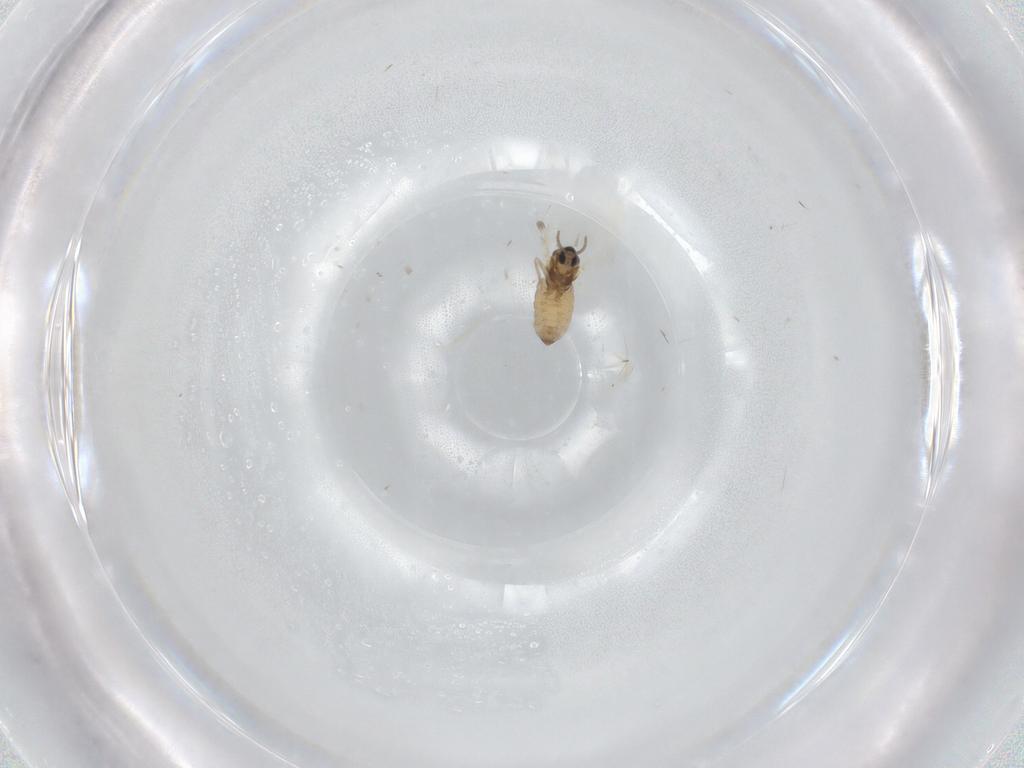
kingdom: Animalia
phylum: Arthropoda
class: Insecta
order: Diptera
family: Cecidomyiidae
